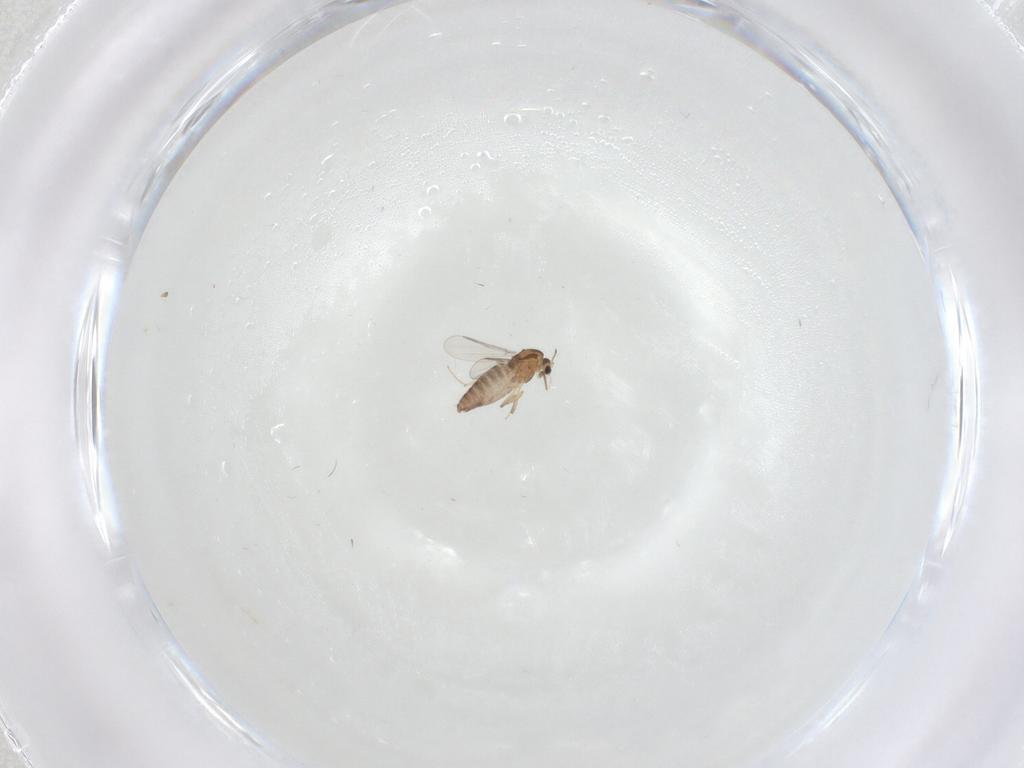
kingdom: Animalia
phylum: Arthropoda
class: Insecta
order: Diptera
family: Chironomidae
